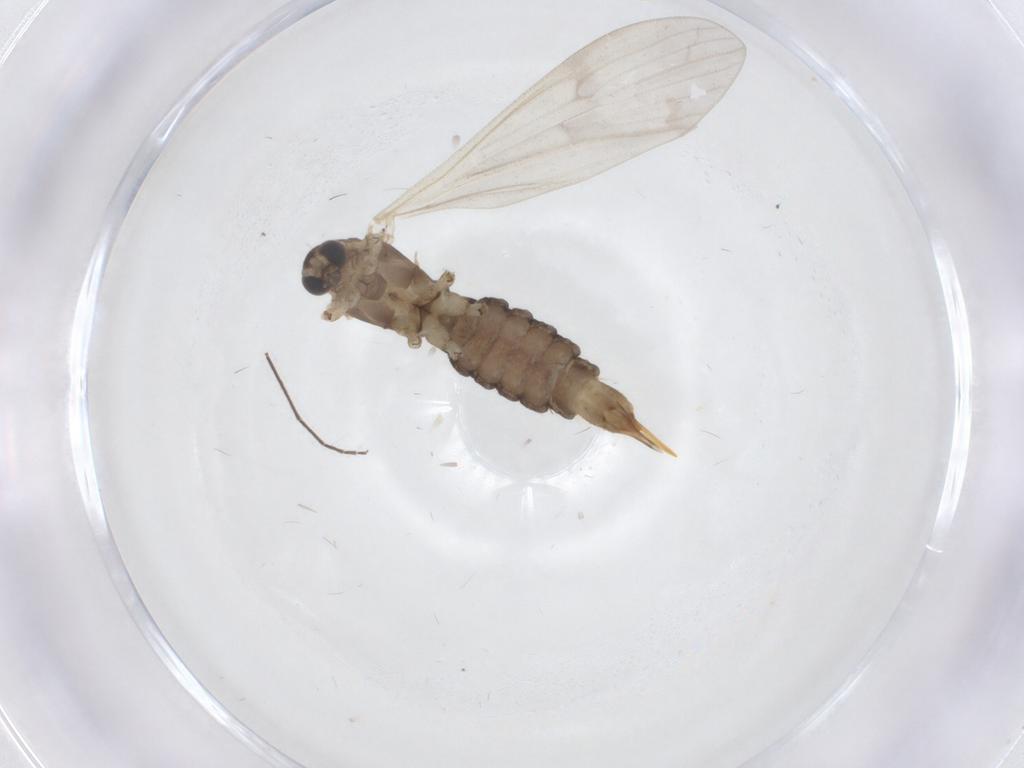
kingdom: Animalia
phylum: Arthropoda
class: Insecta
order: Diptera
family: Limoniidae
